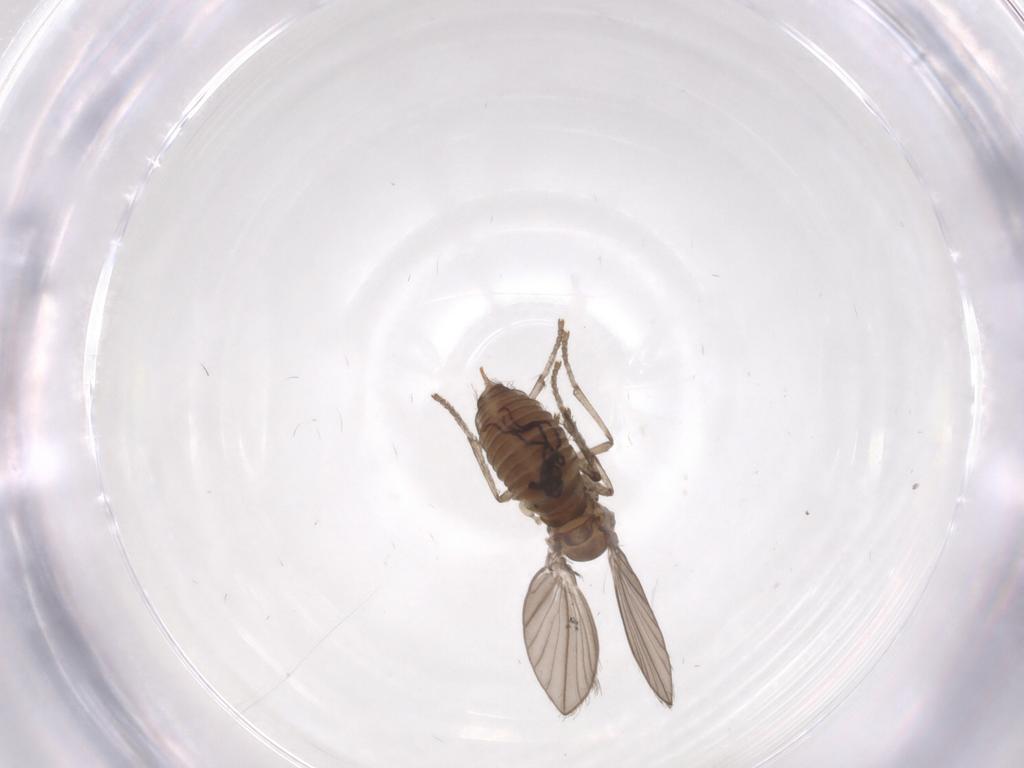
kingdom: Animalia
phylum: Arthropoda
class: Insecta
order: Diptera
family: Psychodidae
